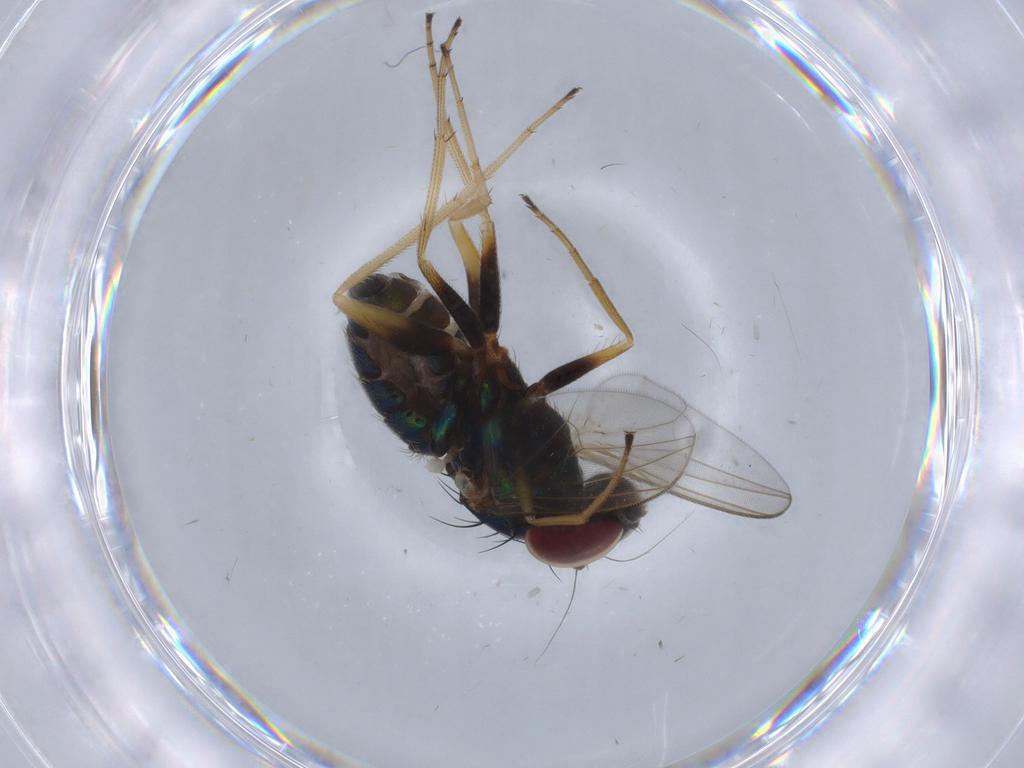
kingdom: Animalia
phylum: Arthropoda
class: Insecta
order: Diptera
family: Dolichopodidae
